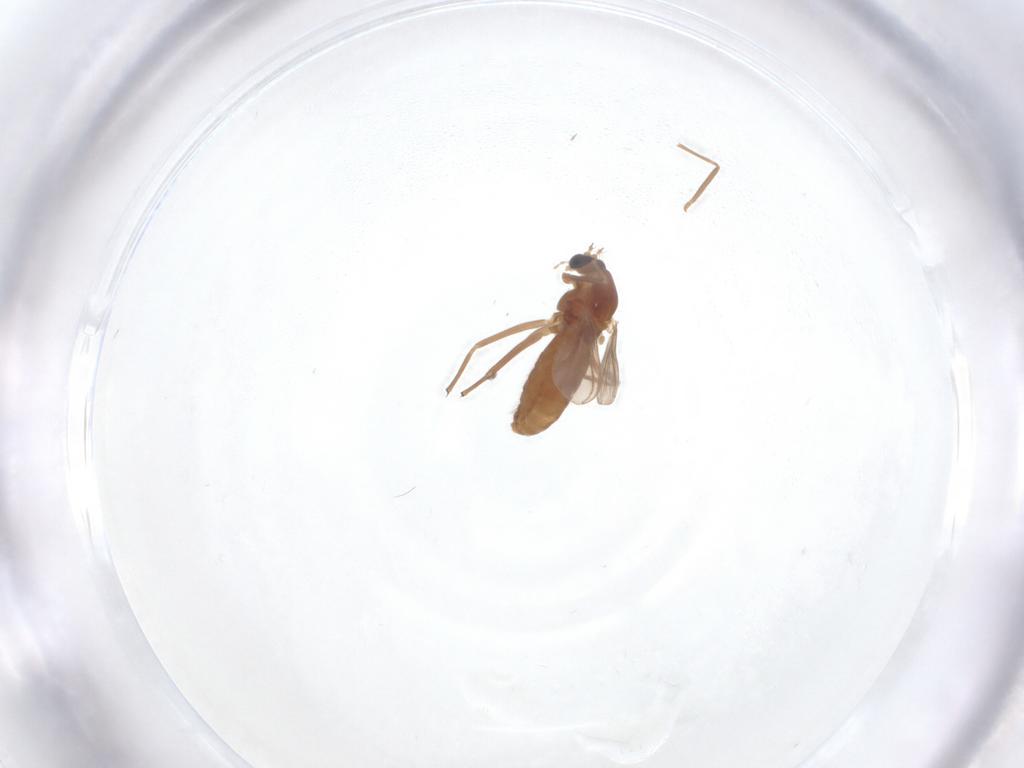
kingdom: Animalia
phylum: Arthropoda
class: Insecta
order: Diptera
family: Chironomidae
